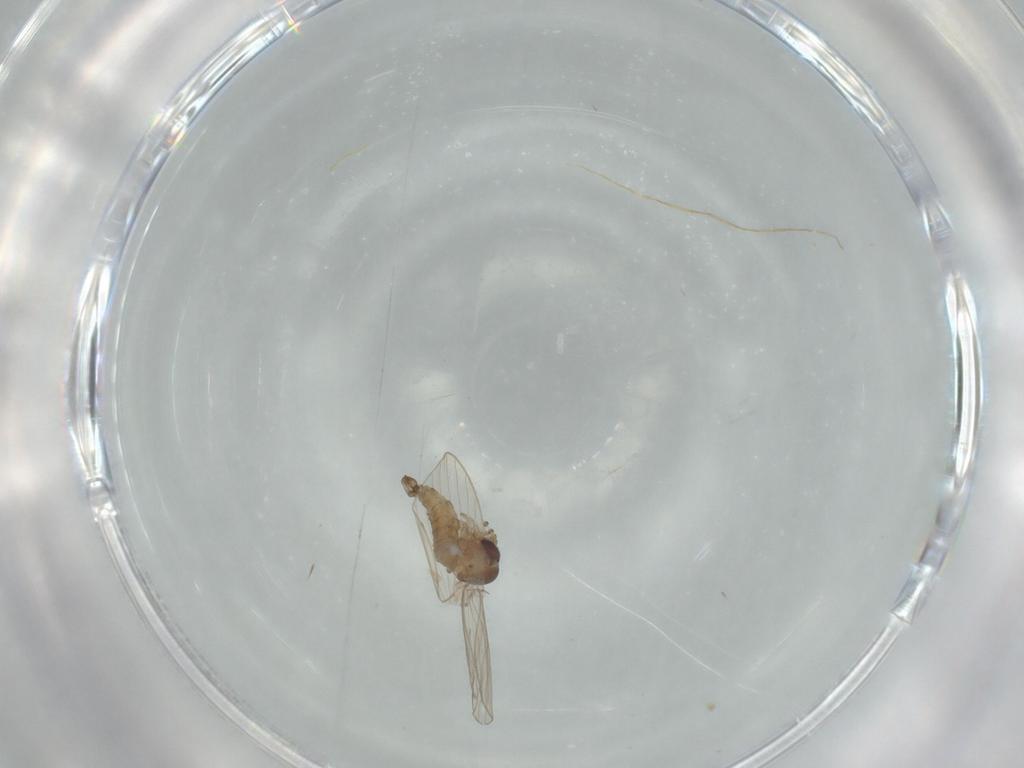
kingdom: Animalia
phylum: Arthropoda
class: Insecta
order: Diptera
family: Psychodidae
